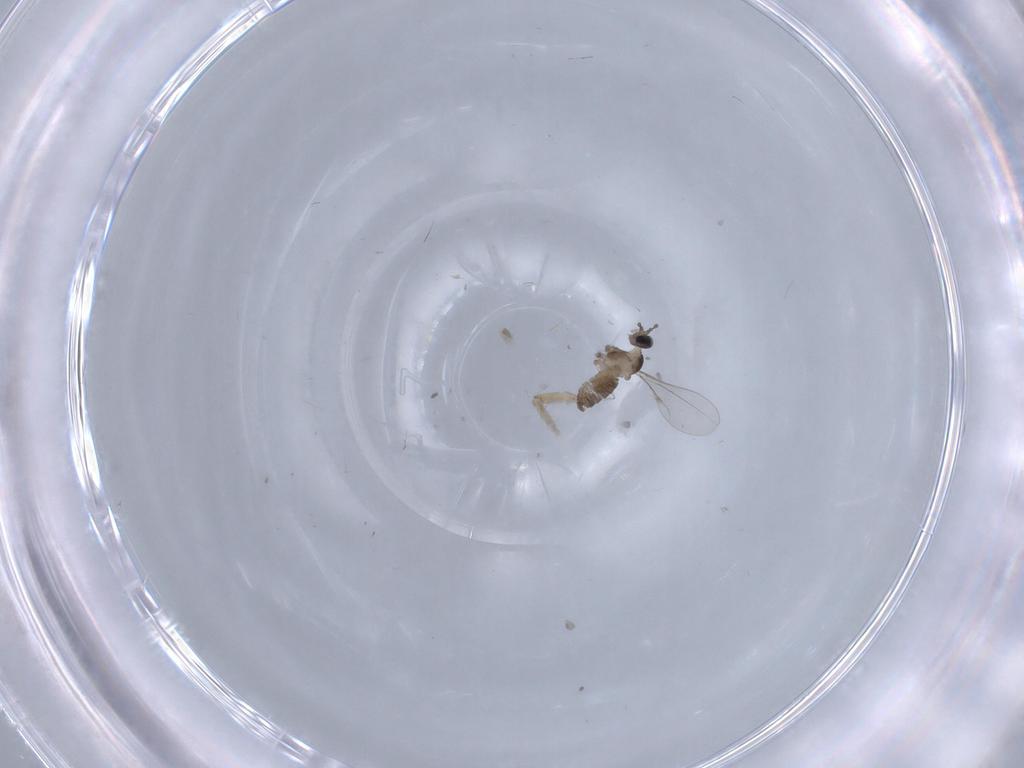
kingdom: Animalia
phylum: Arthropoda
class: Insecta
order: Diptera
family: Cecidomyiidae
